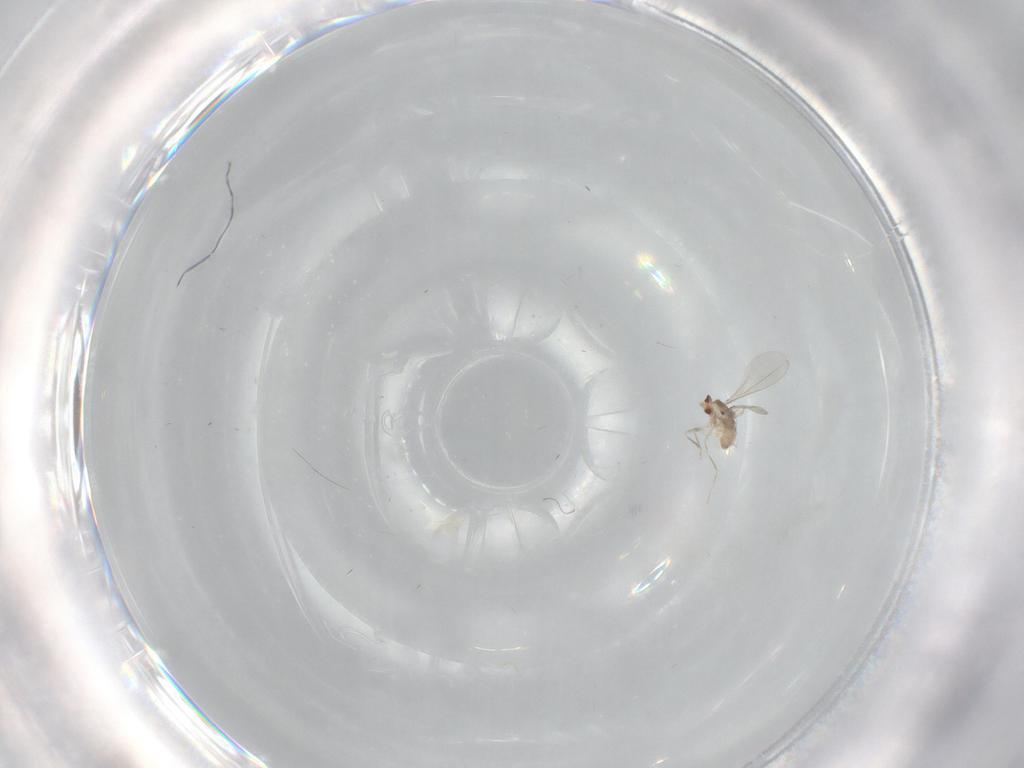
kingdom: Animalia
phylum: Arthropoda
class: Insecta
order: Diptera
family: Cecidomyiidae
